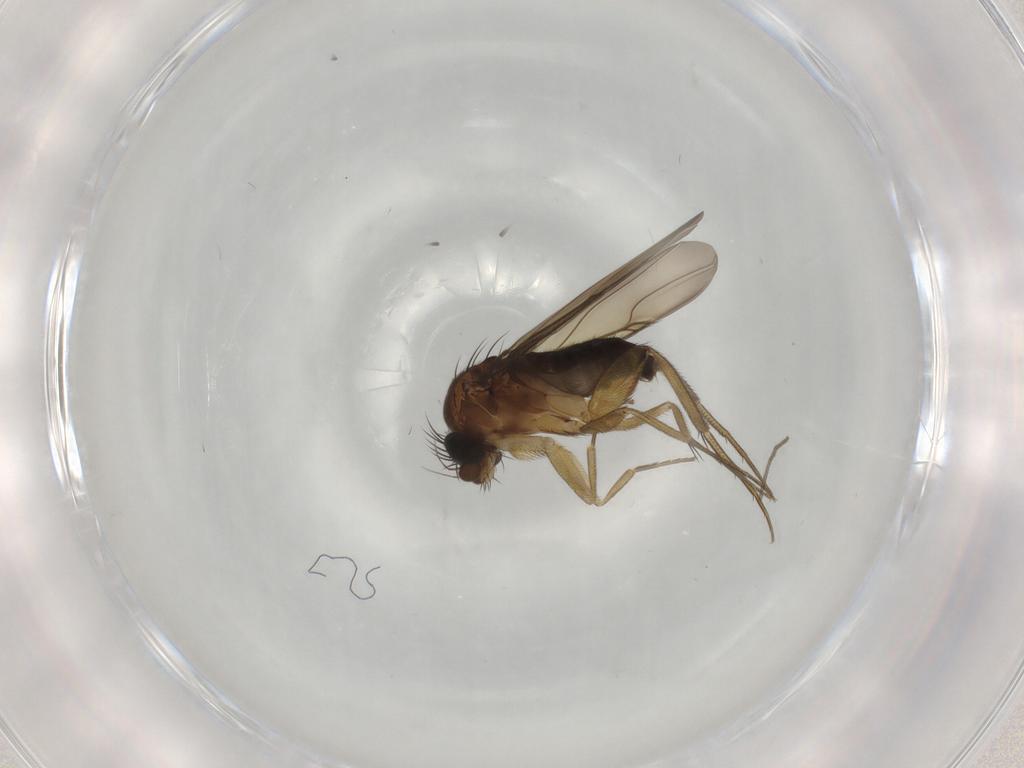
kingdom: Animalia
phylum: Arthropoda
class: Insecta
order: Diptera
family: Phoridae
